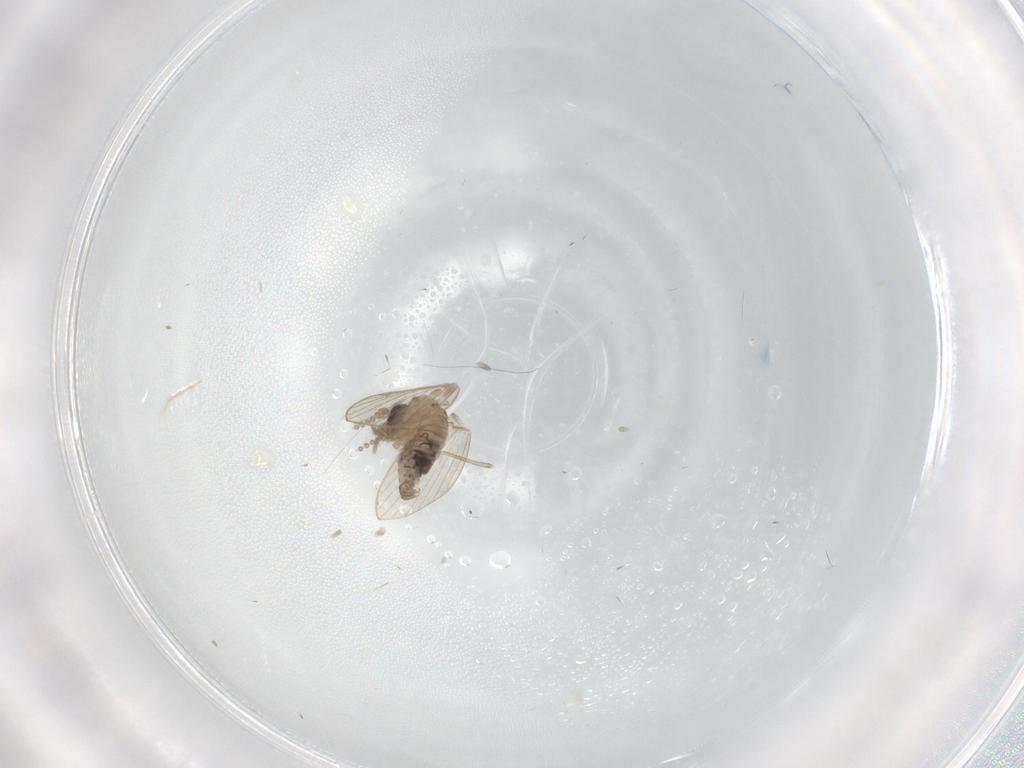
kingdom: Animalia
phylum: Arthropoda
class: Insecta
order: Diptera
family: Psychodidae
